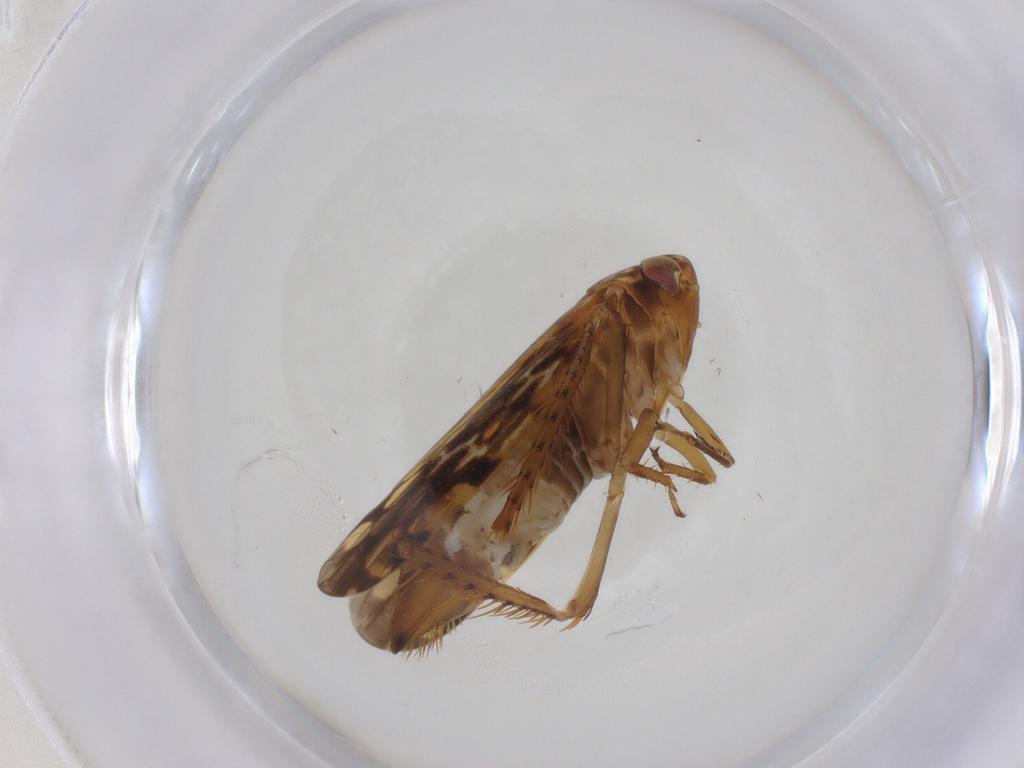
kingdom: Animalia
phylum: Arthropoda
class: Insecta
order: Hemiptera
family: Cicadellidae
